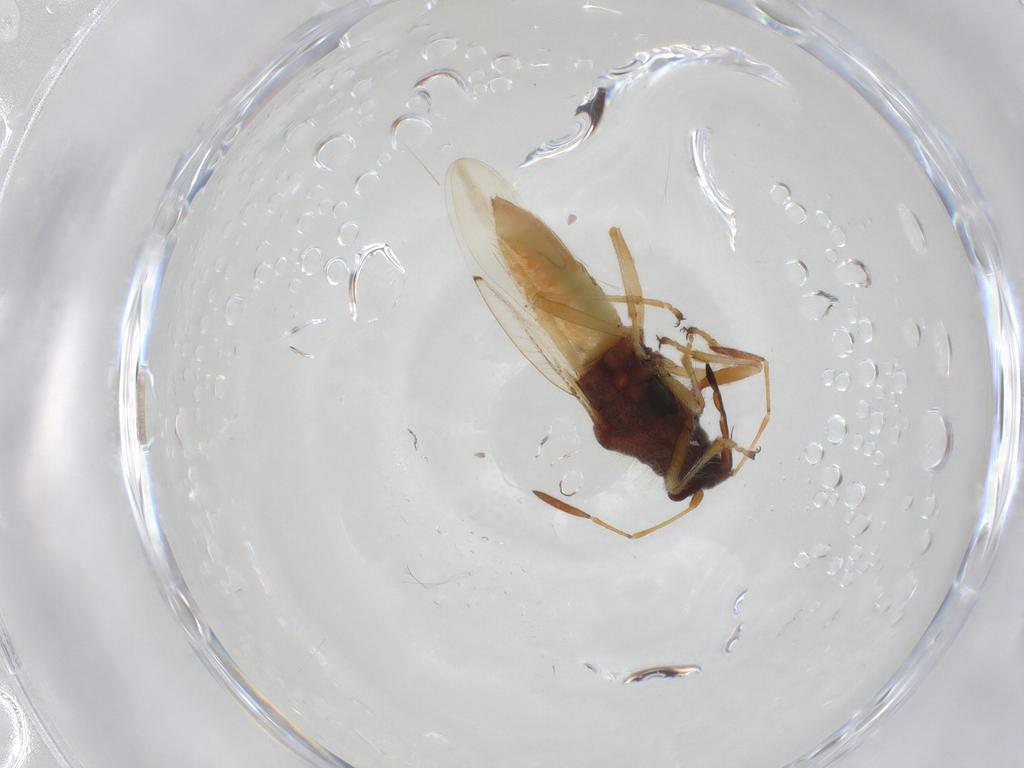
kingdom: Animalia
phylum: Arthropoda
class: Insecta
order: Hemiptera
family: Ninidae
